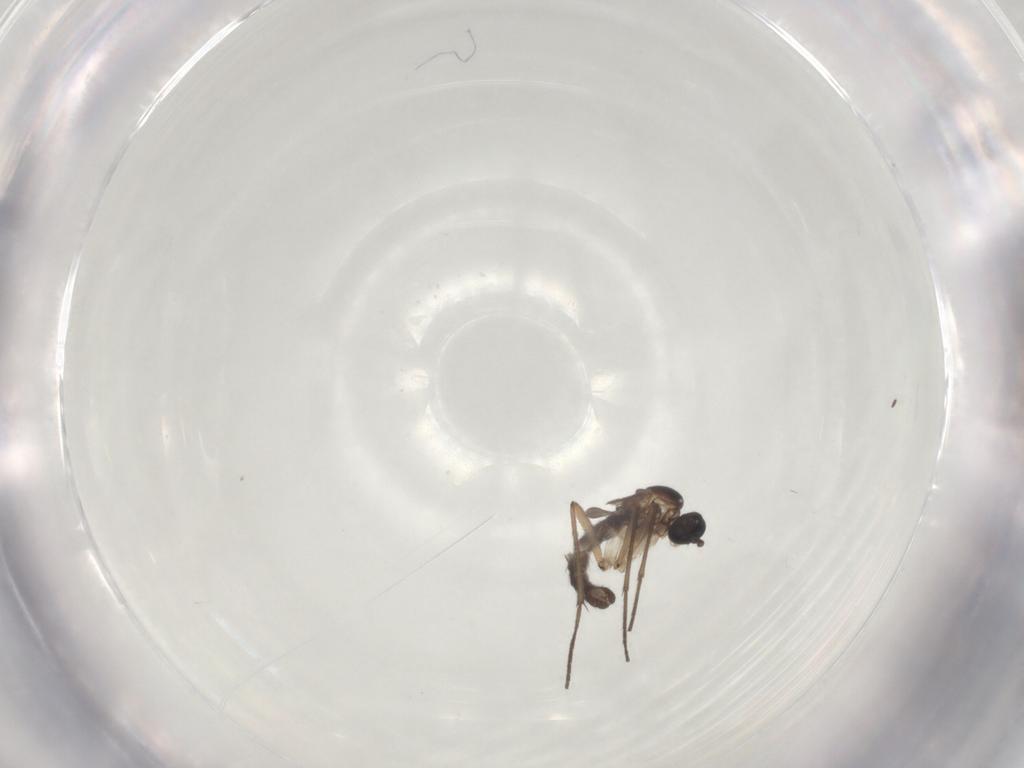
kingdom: Animalia
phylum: Arthropoda
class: Insecta
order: Diptera
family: Sciaridae
